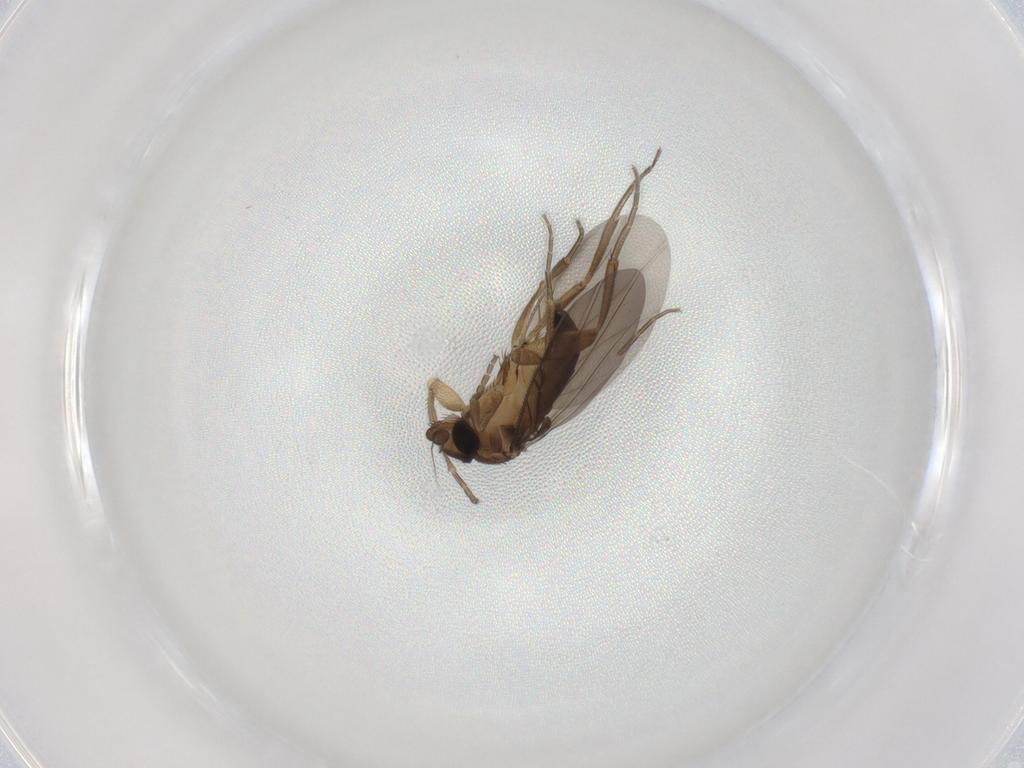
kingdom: Animalia
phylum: Arthropoda
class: Insecta
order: Diptera
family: Phoridae
